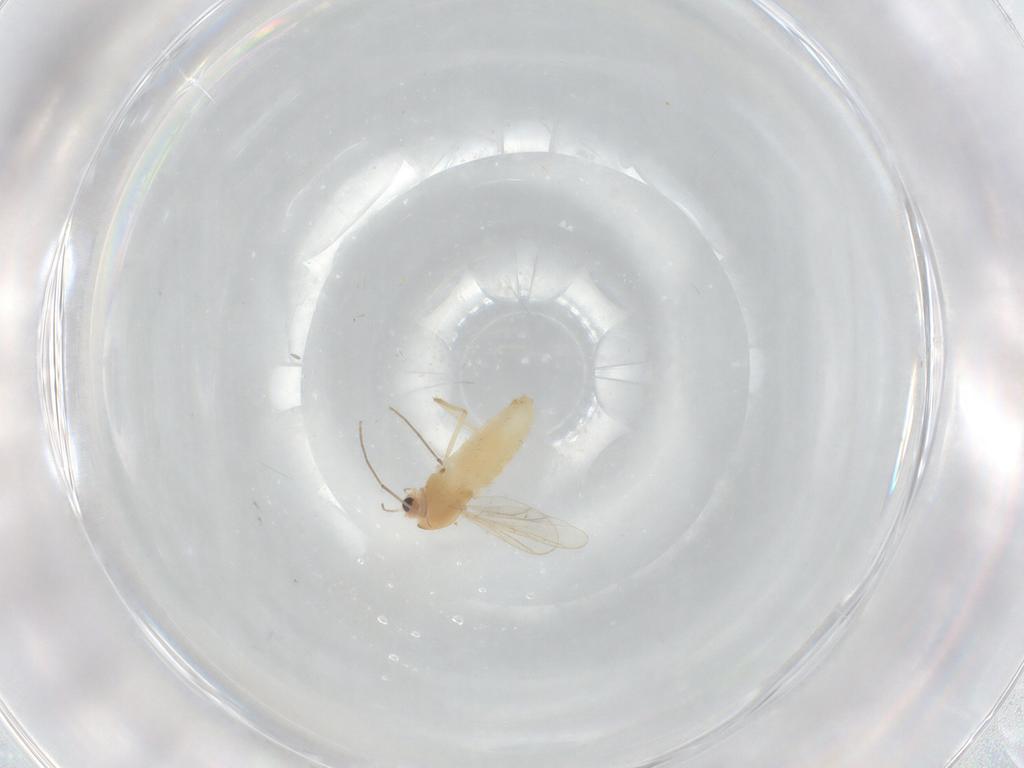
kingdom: Animalia
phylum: Arthropoda
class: Insecta
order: Diptera
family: Chironomidae
